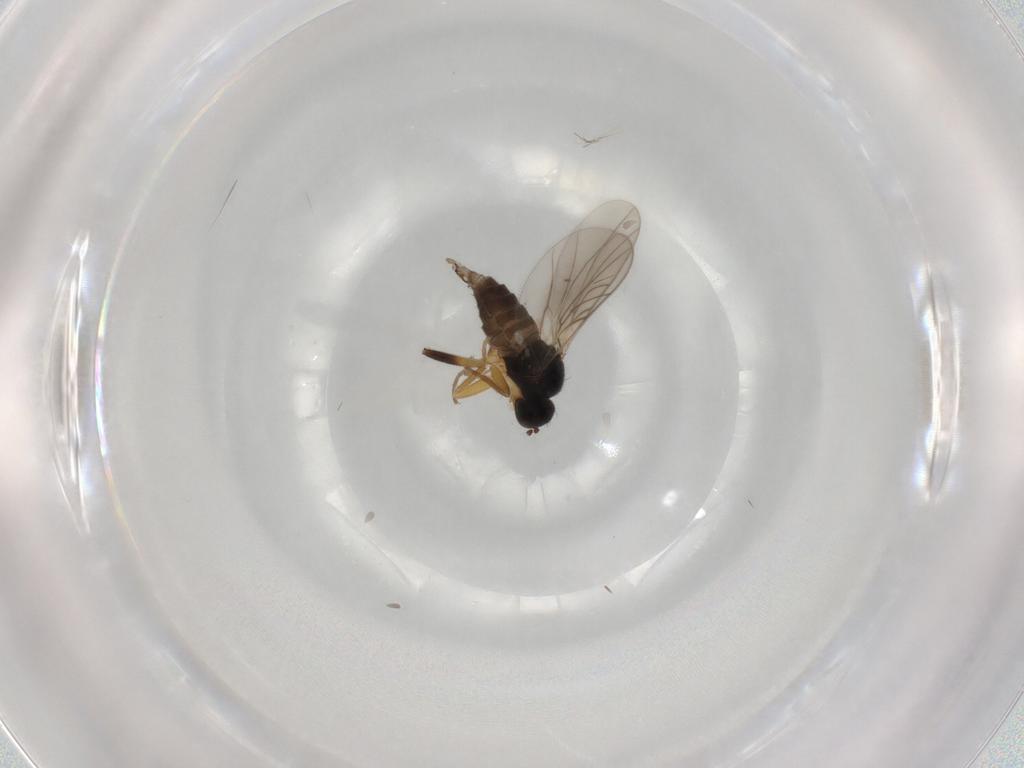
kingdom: Animalia
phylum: Arthropoda
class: Insecta
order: Diptera
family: Hybotidae
